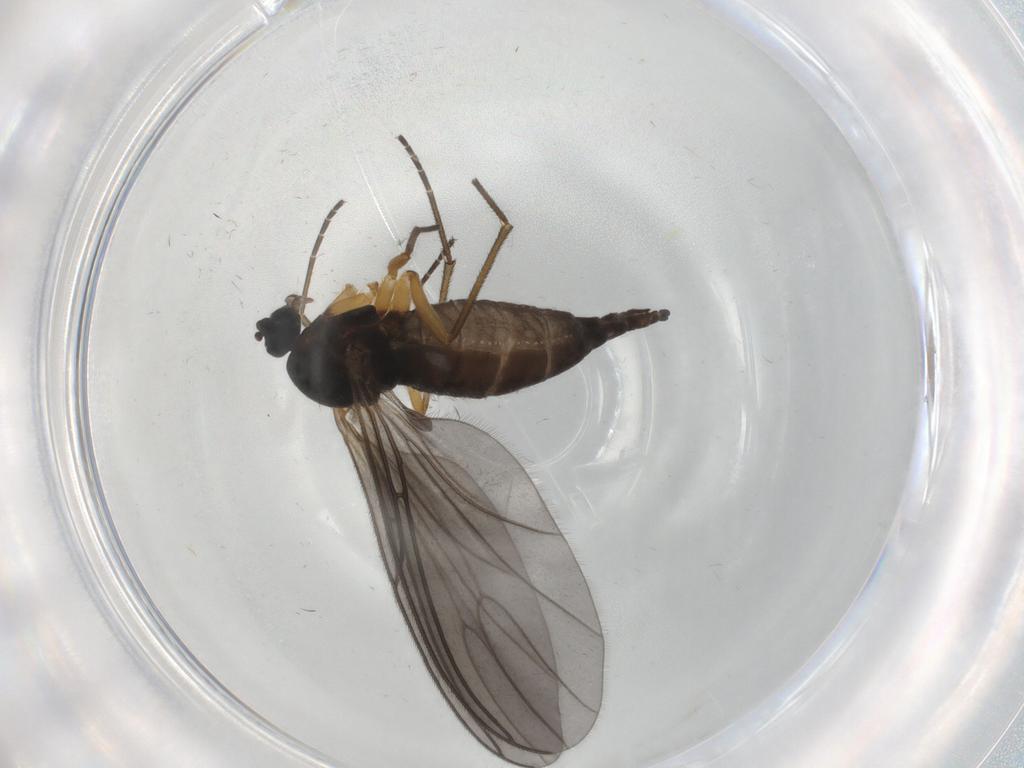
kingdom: Animalia
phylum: Arthropoda
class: Insecta
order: Diptera
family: Sciaridae
